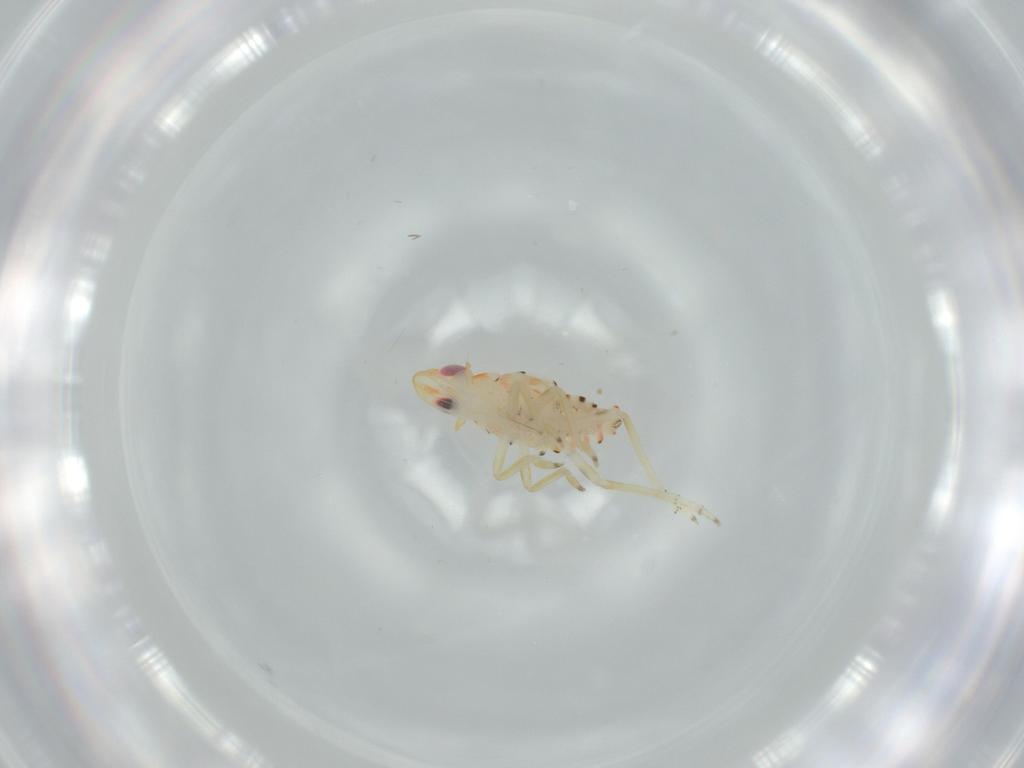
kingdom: Animalia
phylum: Arthropoda
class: Insecta
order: Hemiptera
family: Tropiduchidae
